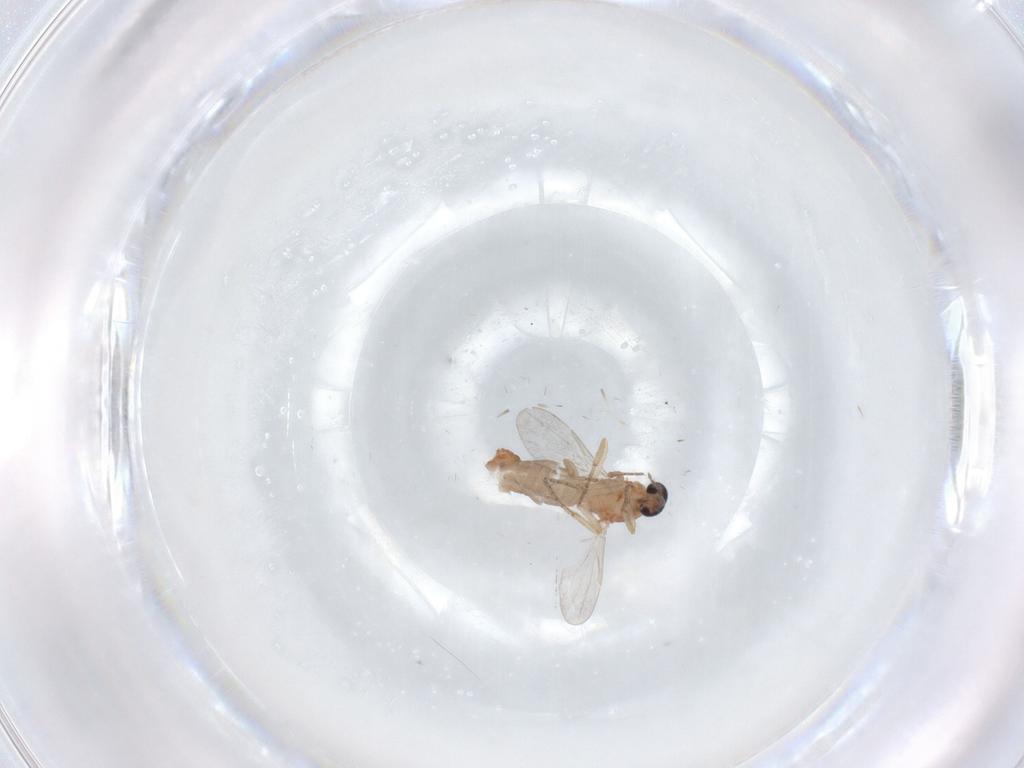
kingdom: Animalia
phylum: Arthropoda
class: Insecta
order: Diptera
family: Ceratopogonidae
